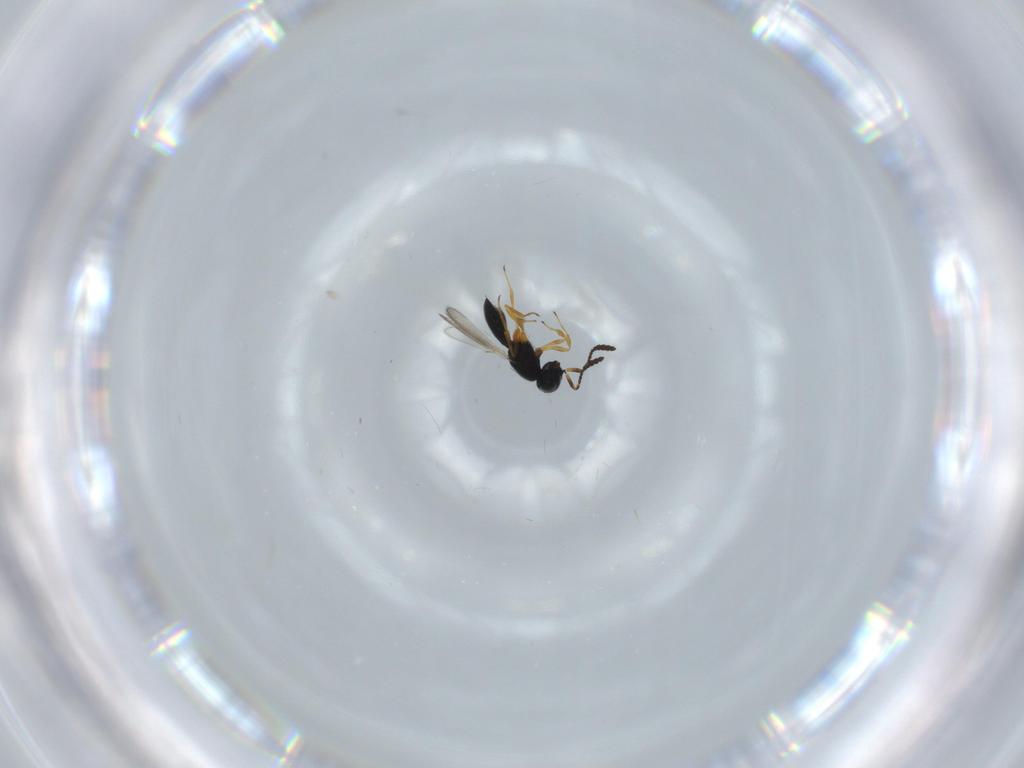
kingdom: Animalia
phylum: Arthropoda
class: Insecta
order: Hymenoptera
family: Scelionidae
